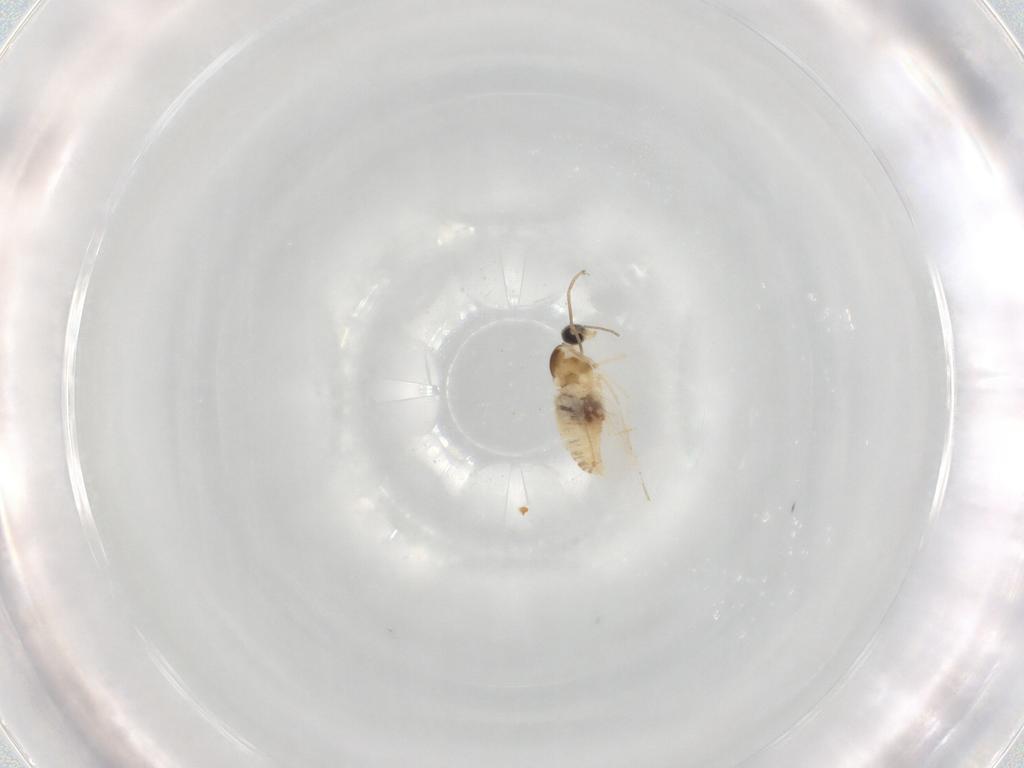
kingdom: Animalia
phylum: Arthropoda
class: Insecta
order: Diptera
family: Cecidomyiidae
